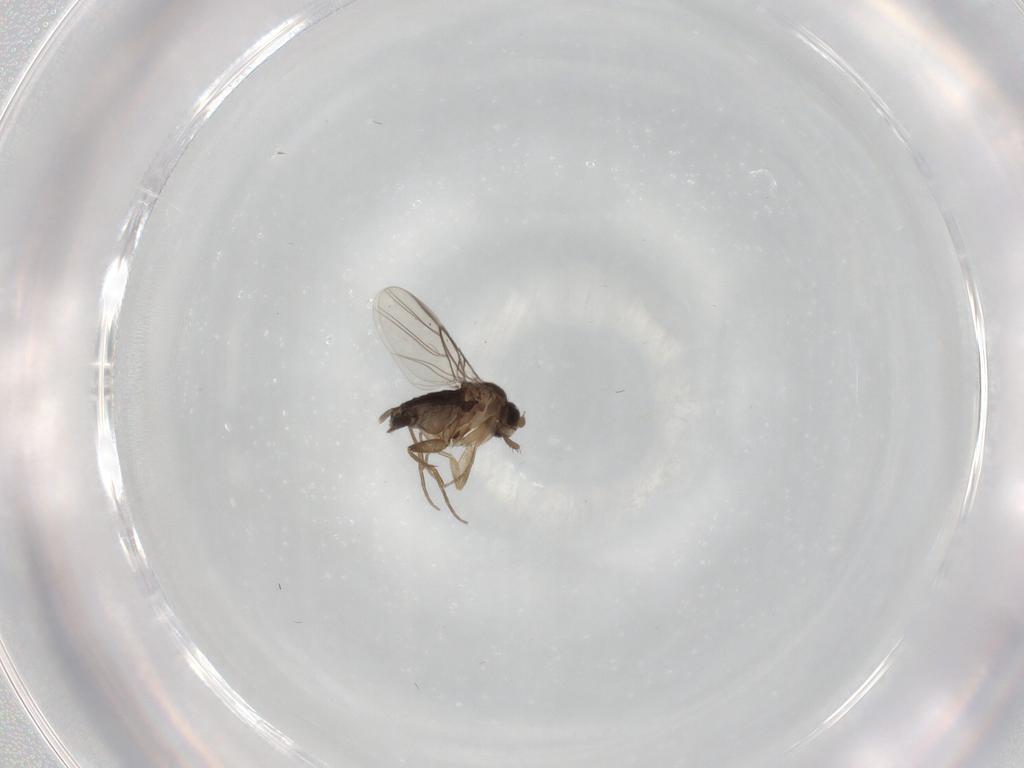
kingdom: Animalia
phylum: Arthropoda
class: Insecta
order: Diptera
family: Phoridae
